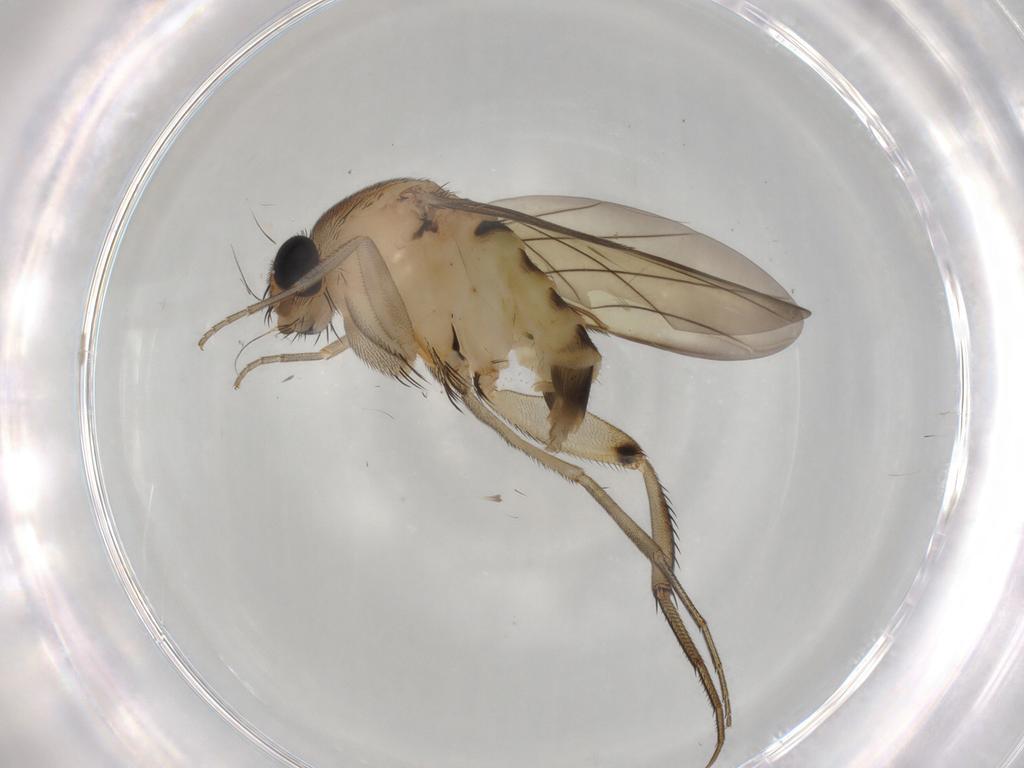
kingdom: Animalia
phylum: Arthropoda
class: Insecta
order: Diptera
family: Phoridae
